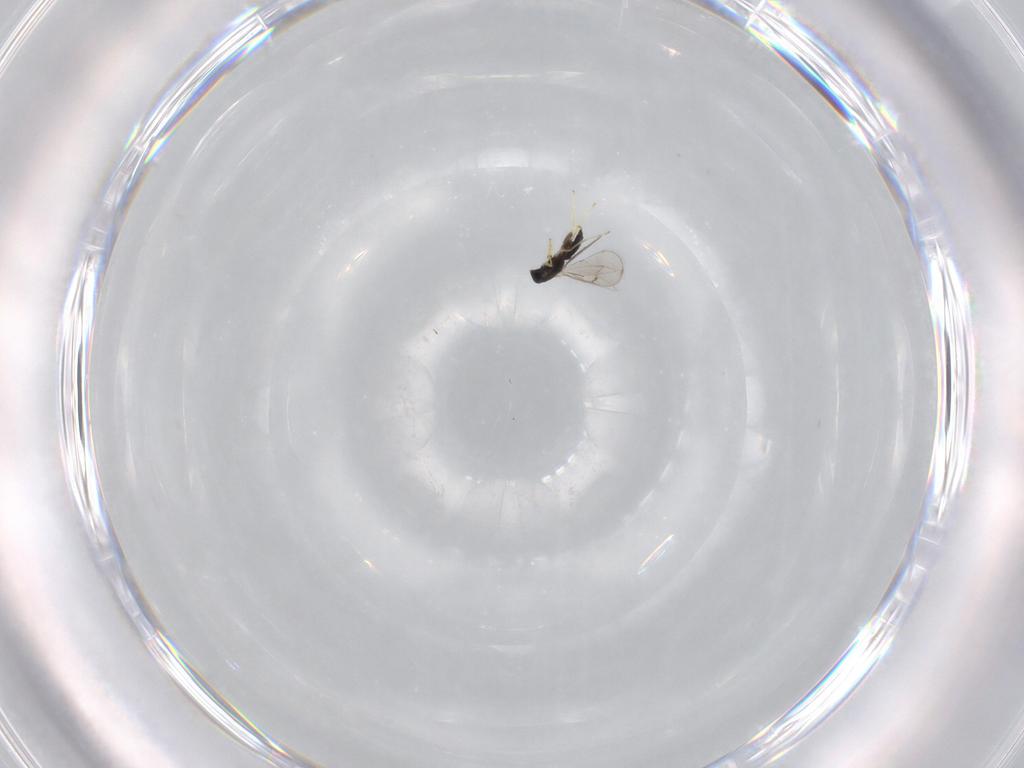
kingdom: Animalia
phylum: Arthropoda
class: Insecta
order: Hymenoptera
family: Eulophidae
